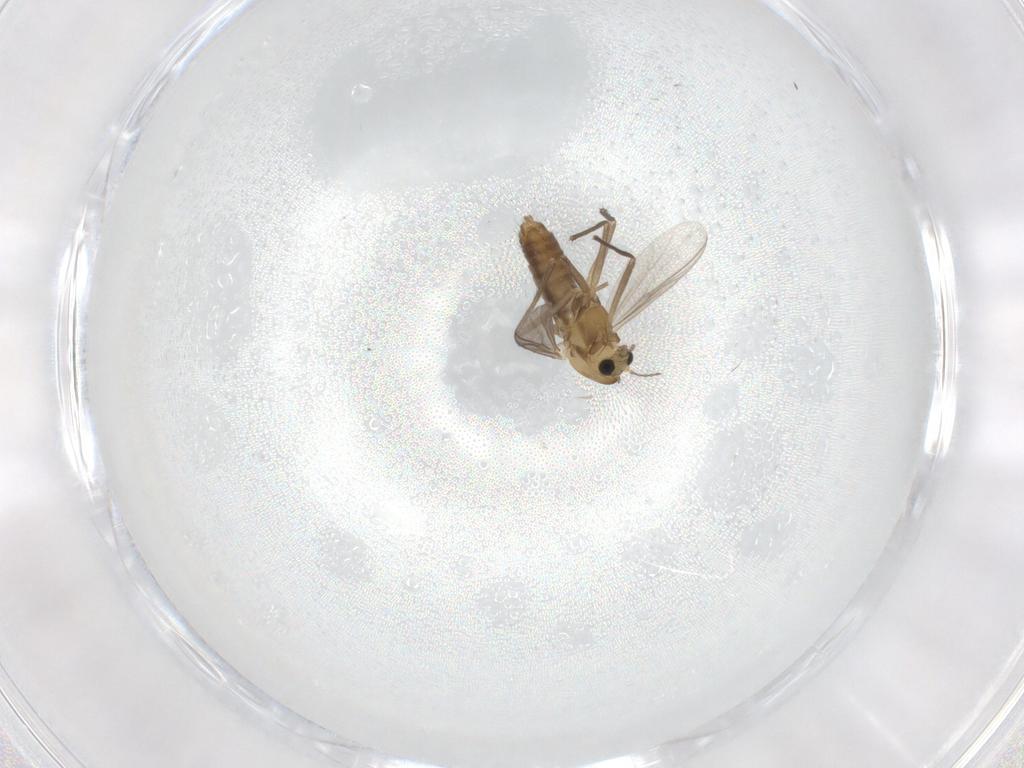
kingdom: Animalia
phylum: Arthropoda
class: Insecta
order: Diptera
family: Chironomidae
